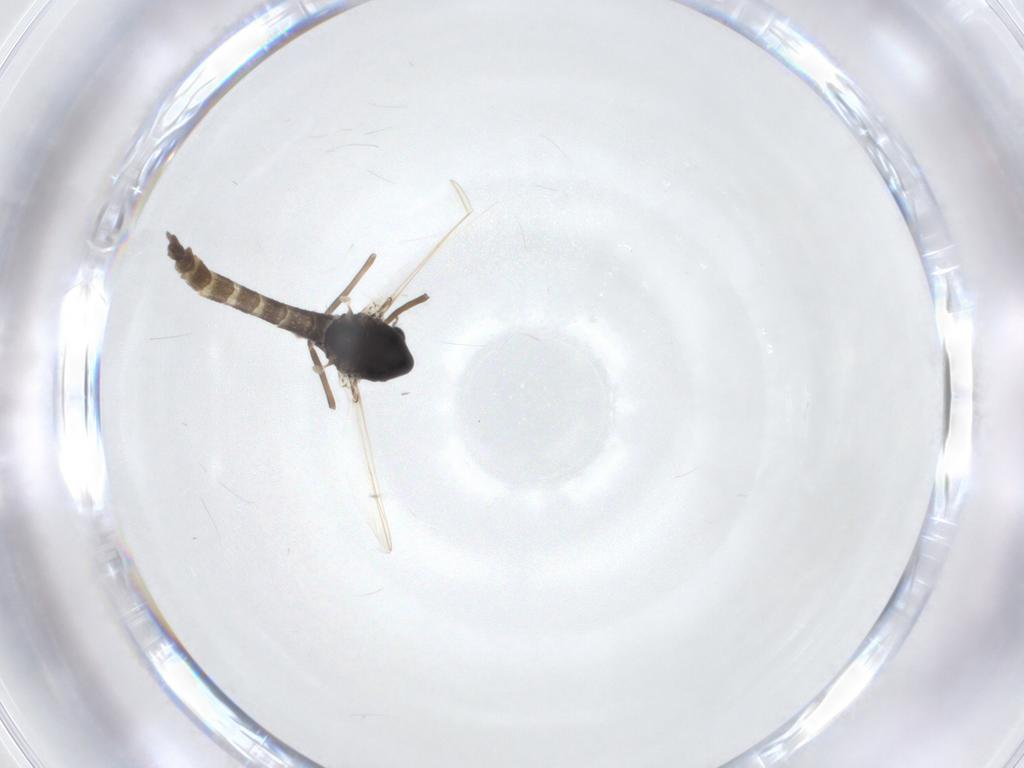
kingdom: Animalia
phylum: Arthropoda
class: Insecta
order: Diptera
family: Chironomidae
